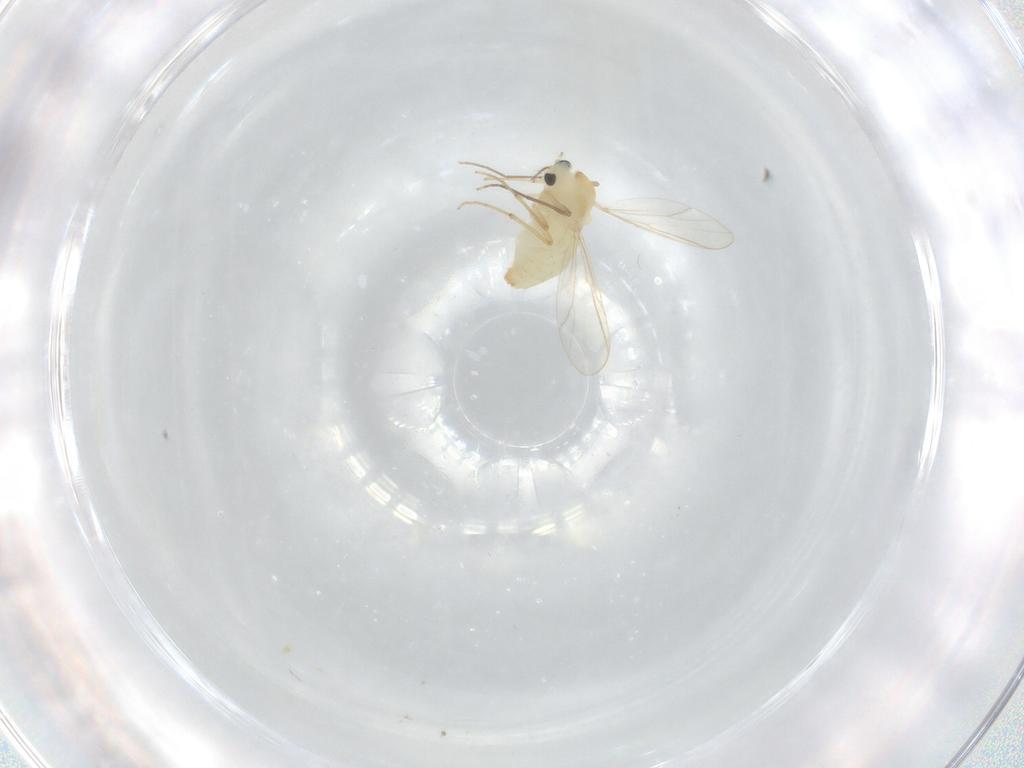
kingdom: Animalia
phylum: Arthropoda
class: Insecta
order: Diptera
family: Chironomidae
